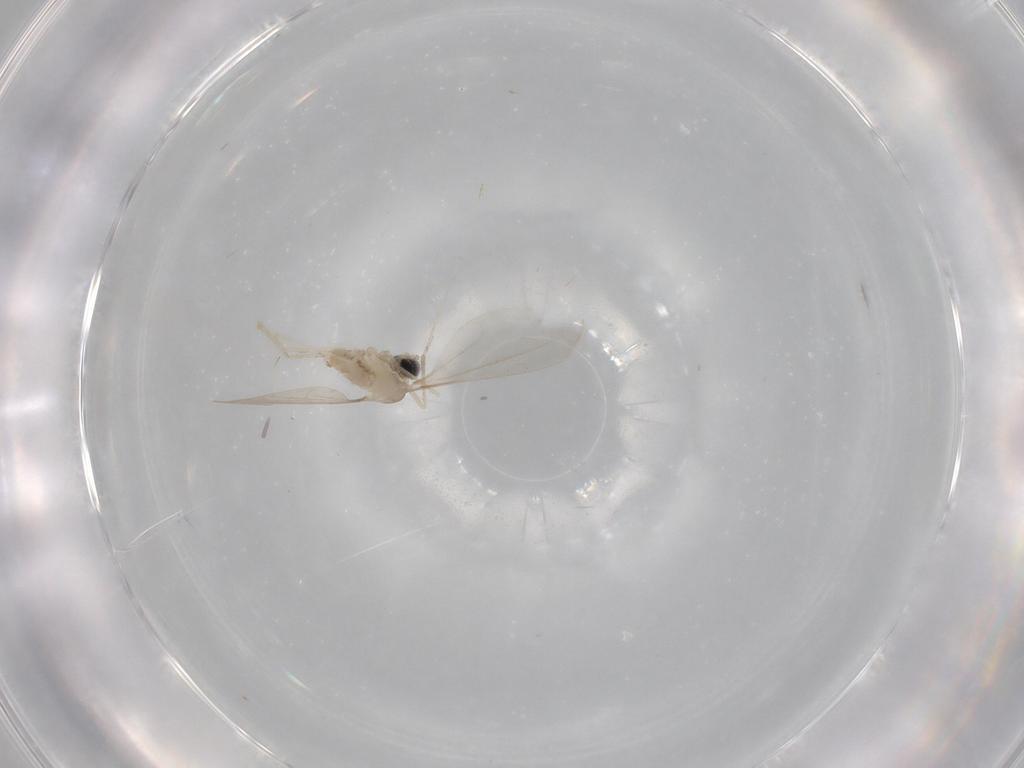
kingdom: Animalia
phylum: Arthropoda
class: Insecta
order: Diptera
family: Cecidomyiidae
